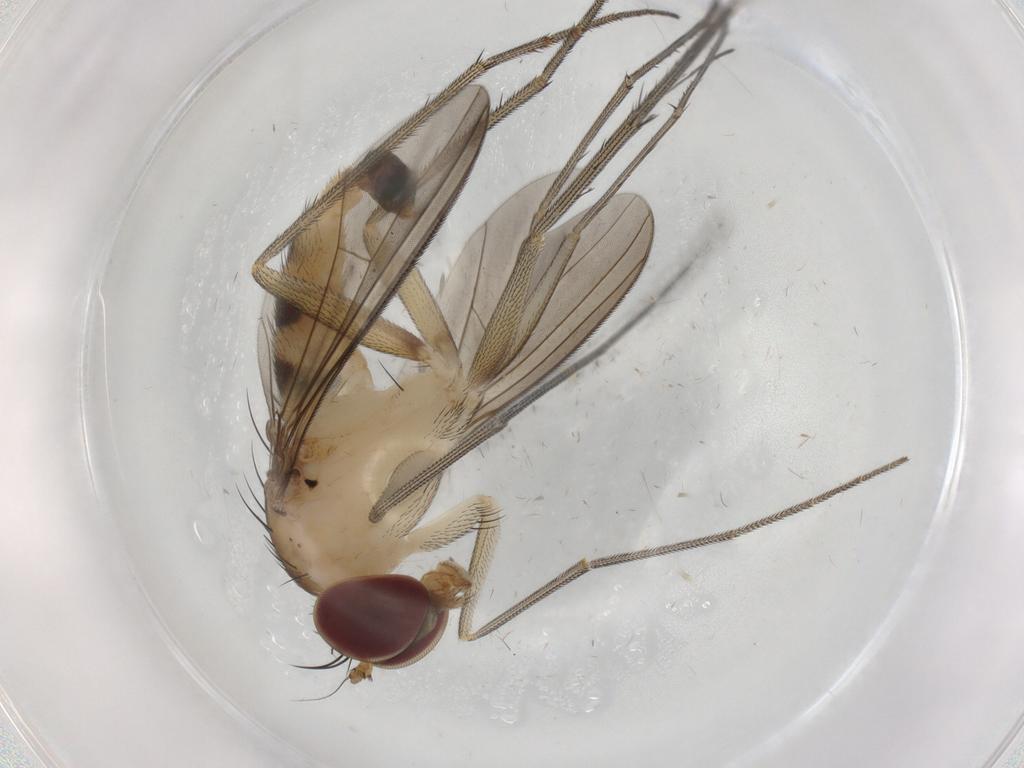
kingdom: Animalia
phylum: Arthropoda
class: Insecta
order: Diptera
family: Dolichopodidae
